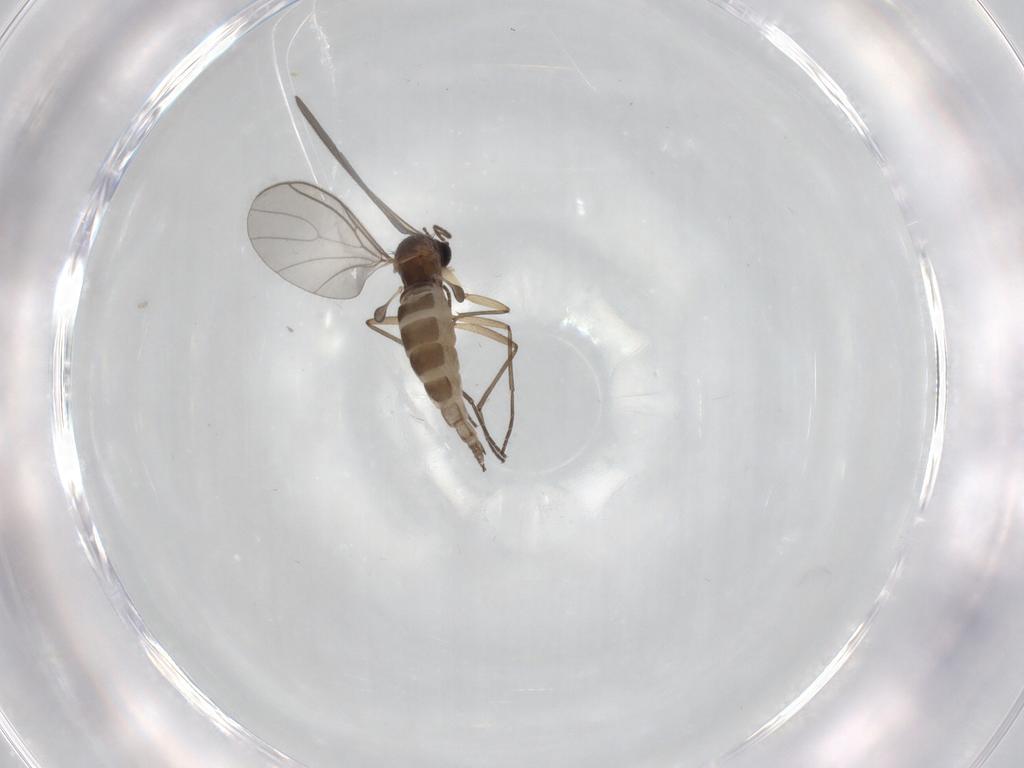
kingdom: Animalia
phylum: Arthropoda
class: Insecta
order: Diptera
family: Sciaridae
